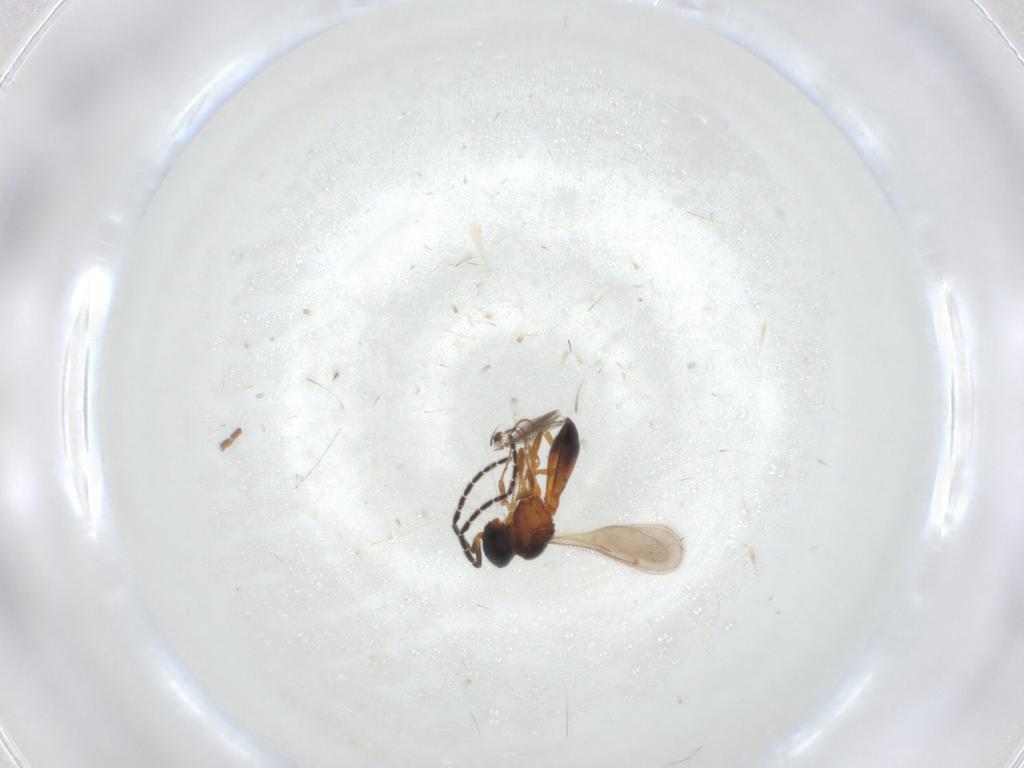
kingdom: Animalia
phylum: Arthropoda
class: Insecta
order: Hymenoptera
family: Scelionidae
